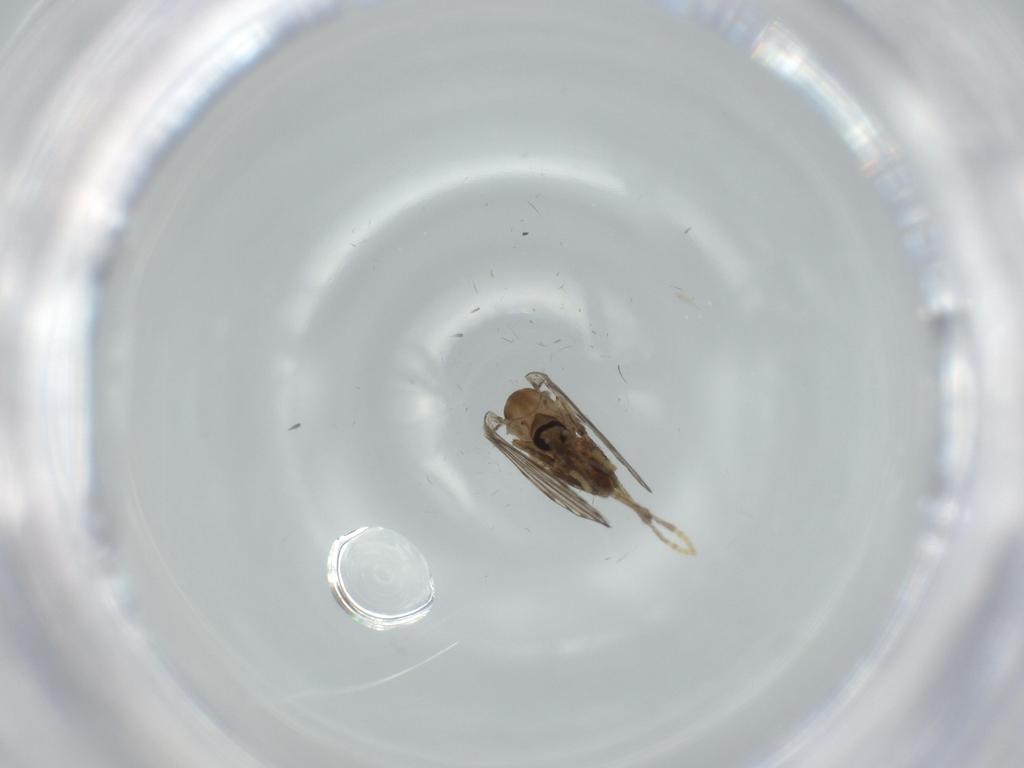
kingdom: Animalia
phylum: Arthropoda
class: Insecta
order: Diptera
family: Psychodidae
